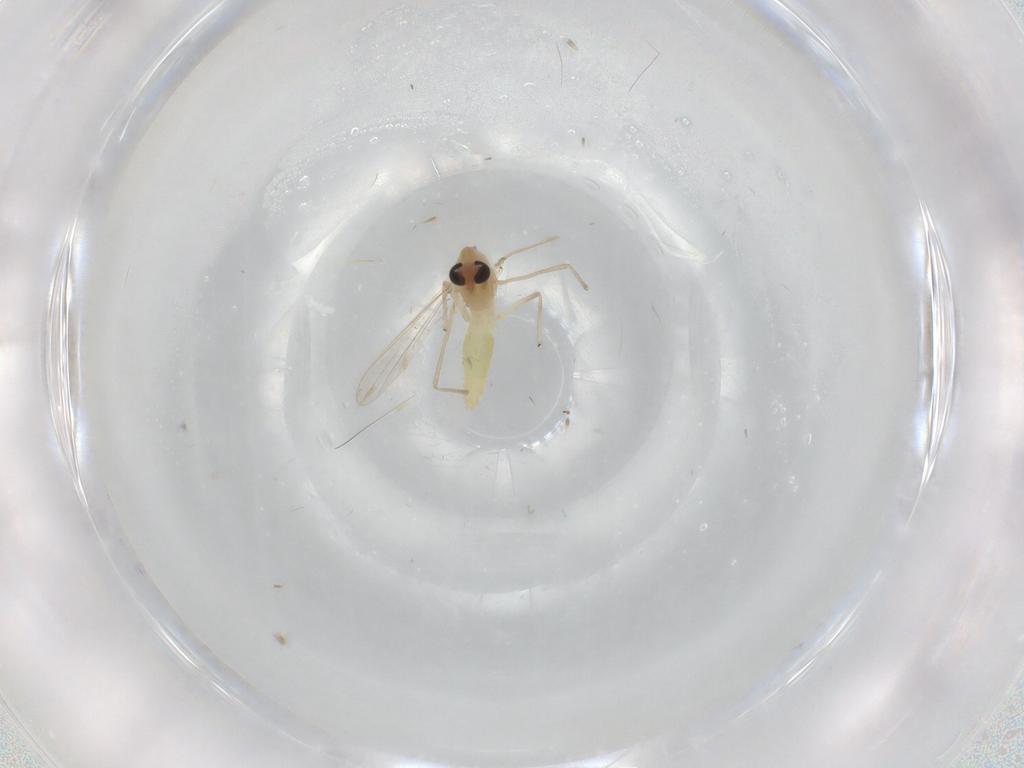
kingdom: Animalia
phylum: Arthropoda
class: Insecta
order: Diptera
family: Chironomidae
